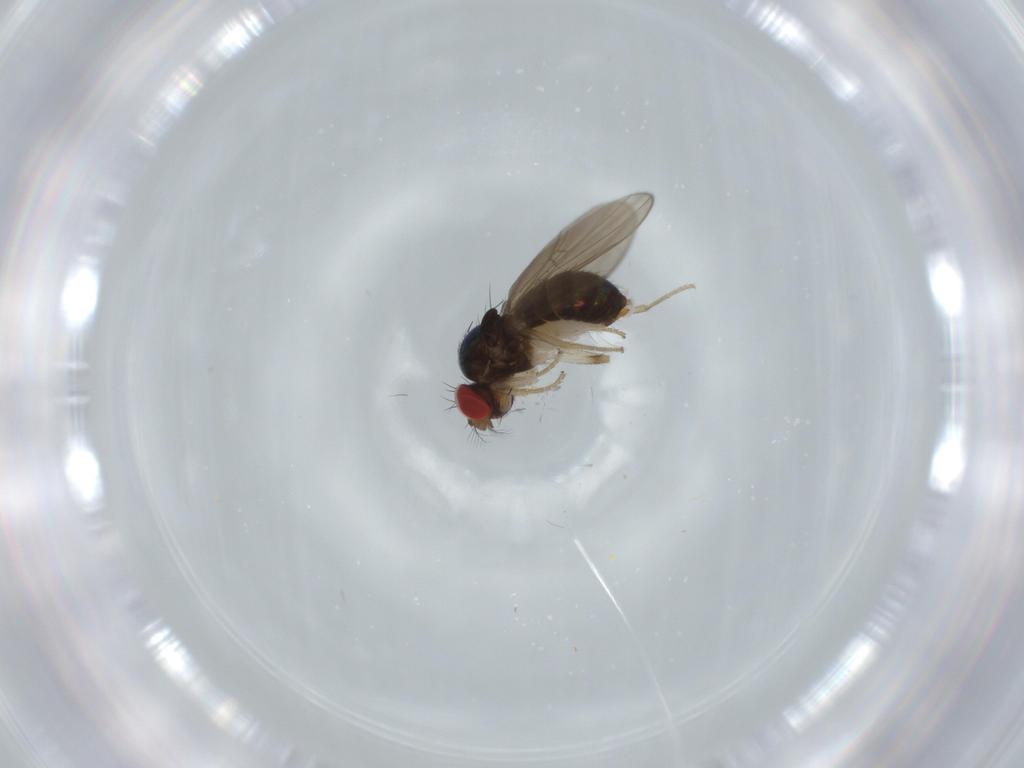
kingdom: Animalia
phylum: Arthropoda
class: Insecta
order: Diptera
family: Drosophilidae
